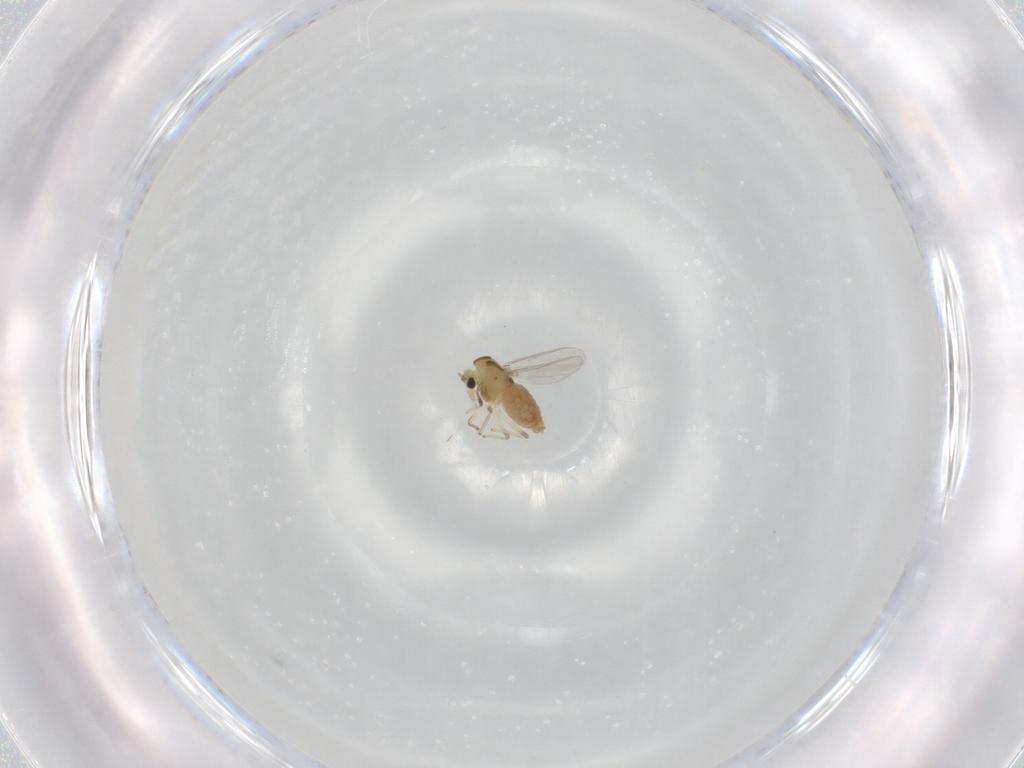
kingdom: Animalia
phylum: Arthropoda
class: Insecta
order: Diptera
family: Chironomidae
